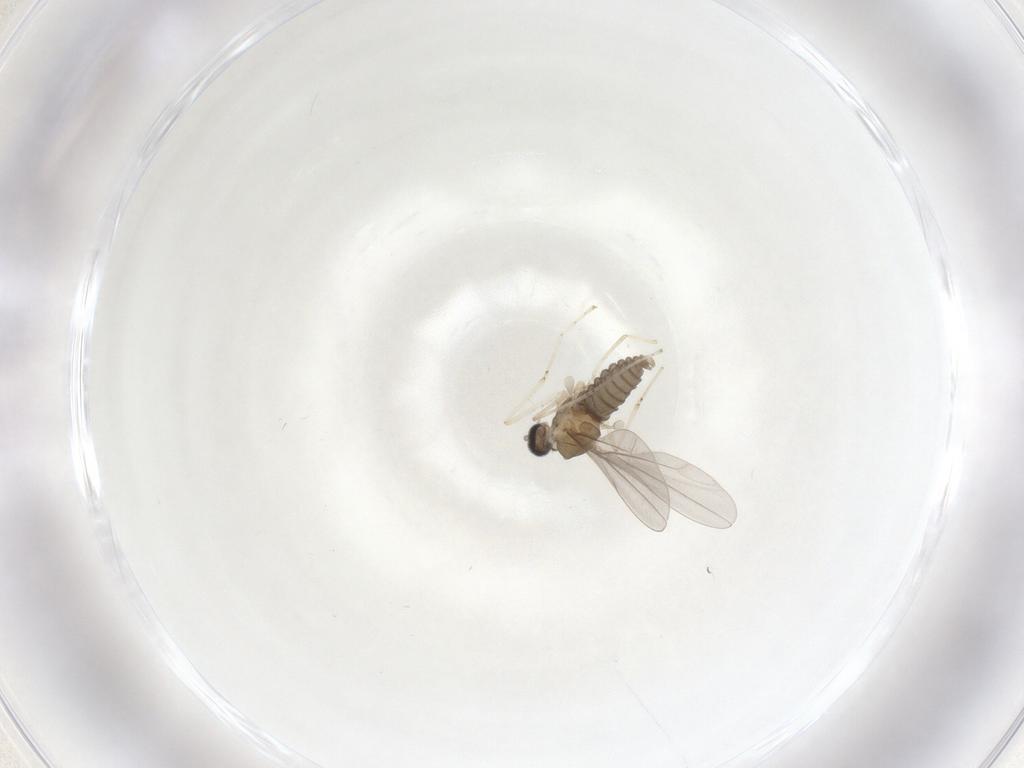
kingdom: Animalia
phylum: Arthropoda
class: Insecta
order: Diptera
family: Cecidomyiidae
